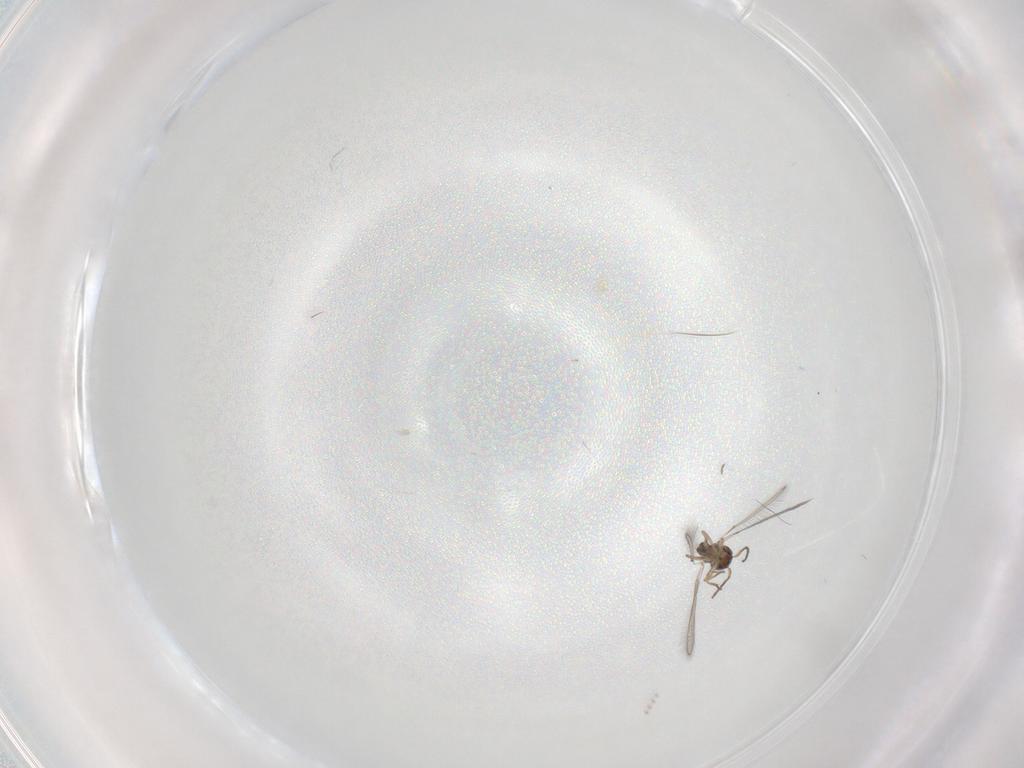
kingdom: Animalia
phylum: Arthropoda
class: Insecta
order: Hymenoptera
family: Mymaridae
